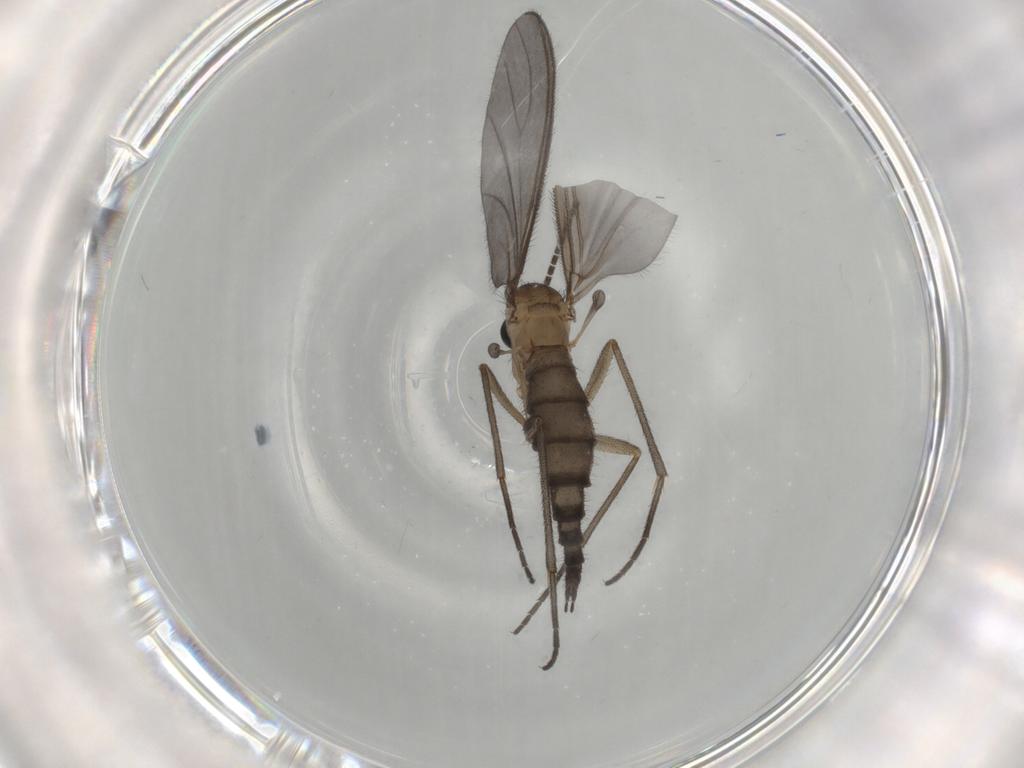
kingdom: Animalia
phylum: Arthropoda
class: Insecta
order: Diptera
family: Sciaridae
